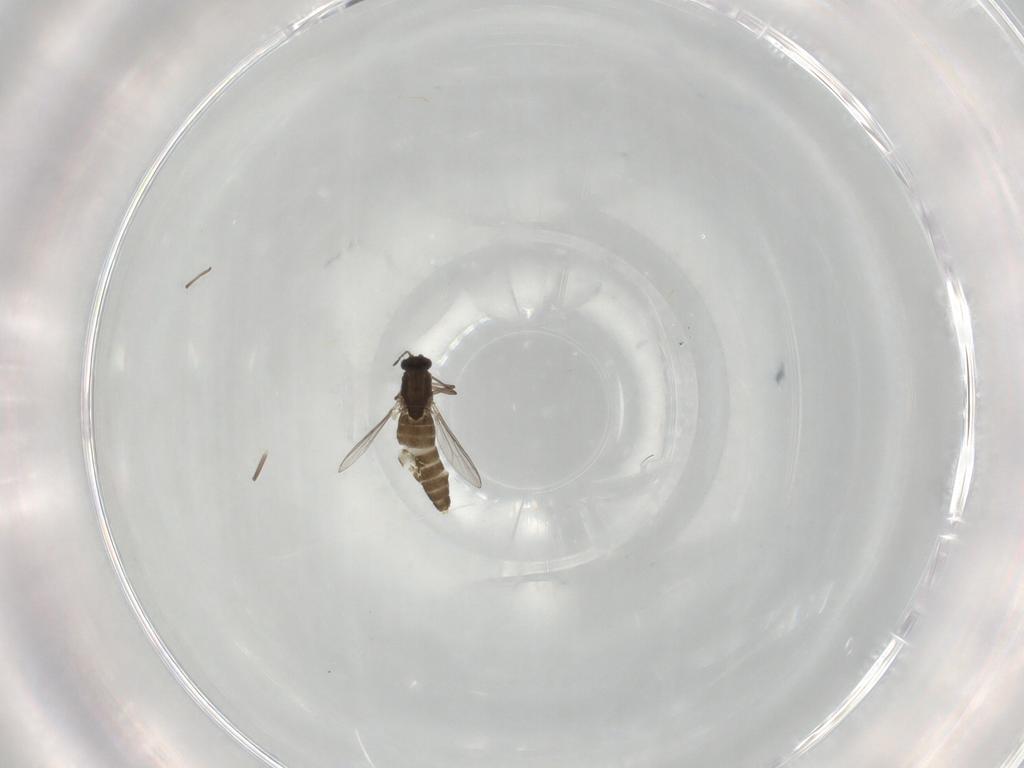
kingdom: Animalia
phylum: Arthropoda
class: Insecta
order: Diptera
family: Chironomidae
